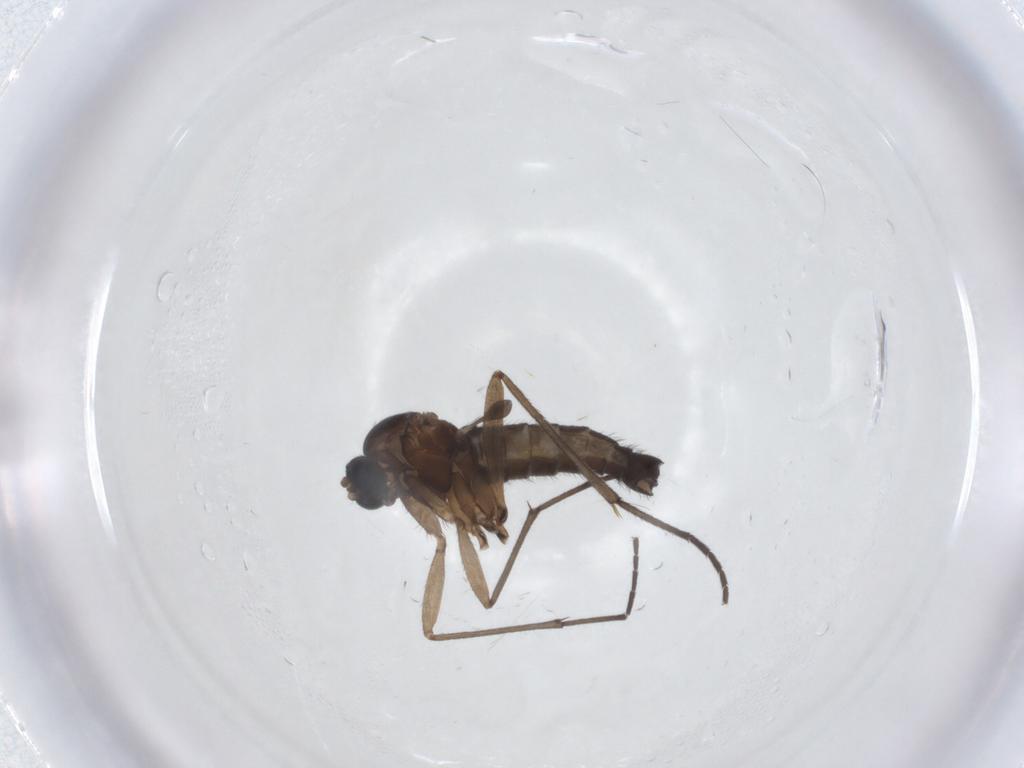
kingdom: Animalia
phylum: Arthropoda
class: Insecta
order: Diptera
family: Sciaridae
